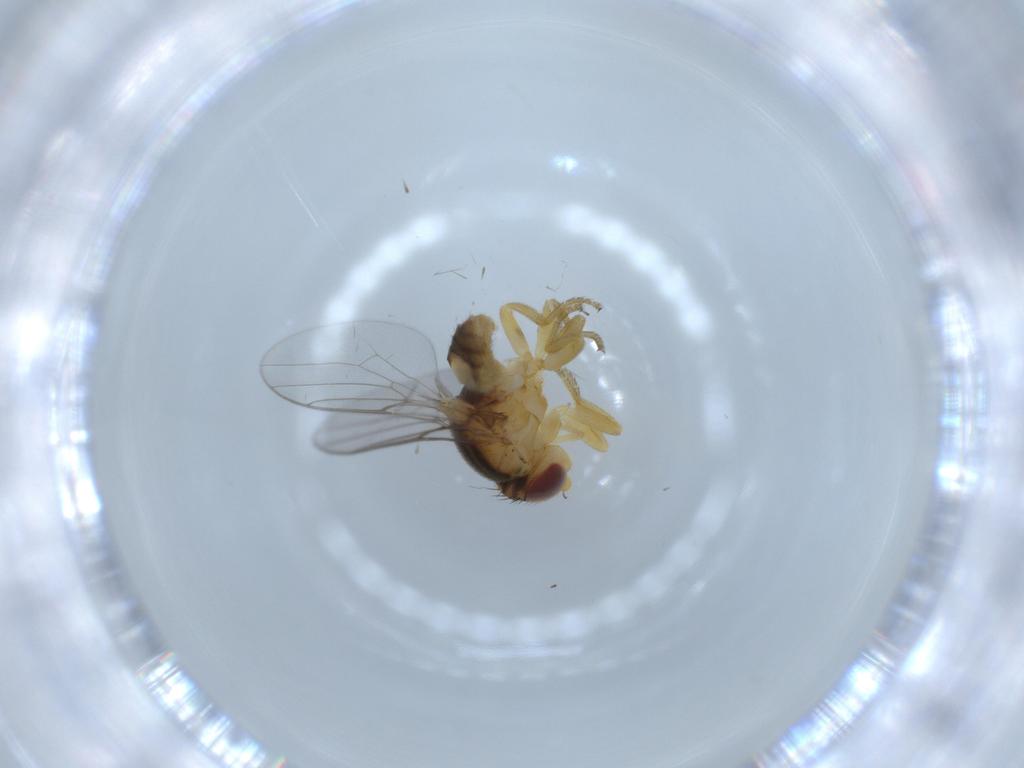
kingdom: Animalia
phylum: Arthropoda
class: Insecta
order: Diptera
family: Chloropidae
